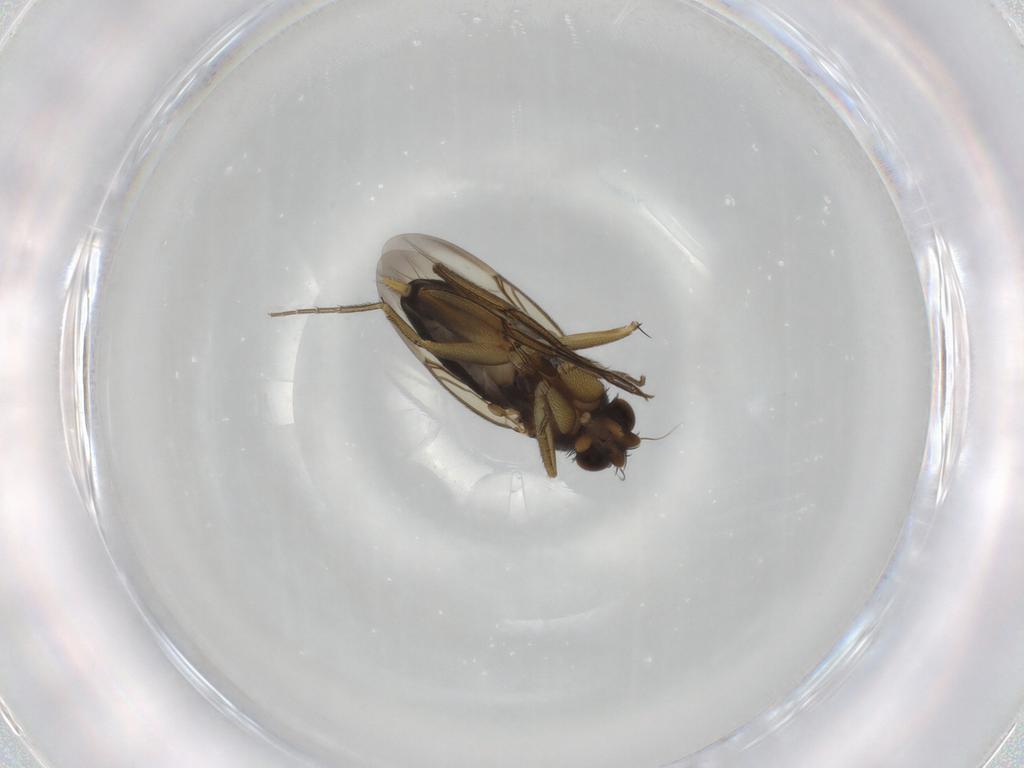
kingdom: Animalia
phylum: Arthropoda
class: Insecta
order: Diptera
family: Phoridae
